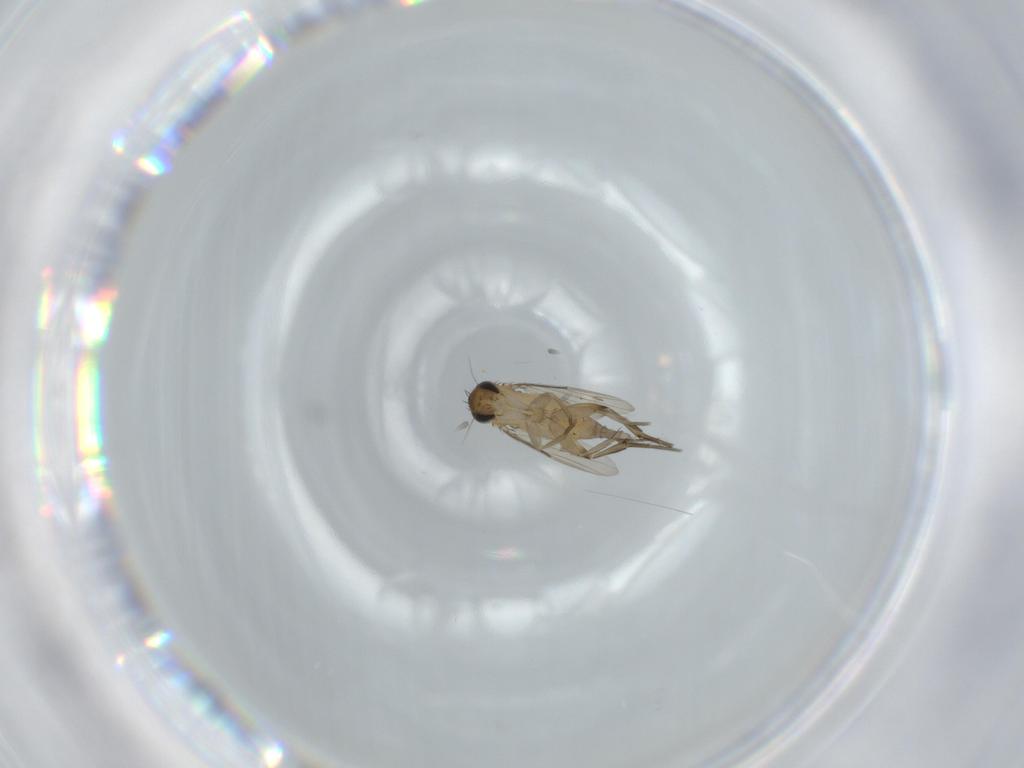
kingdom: Animalia
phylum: Arthropoda
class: Insecta
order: Diptera
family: Phoridae
